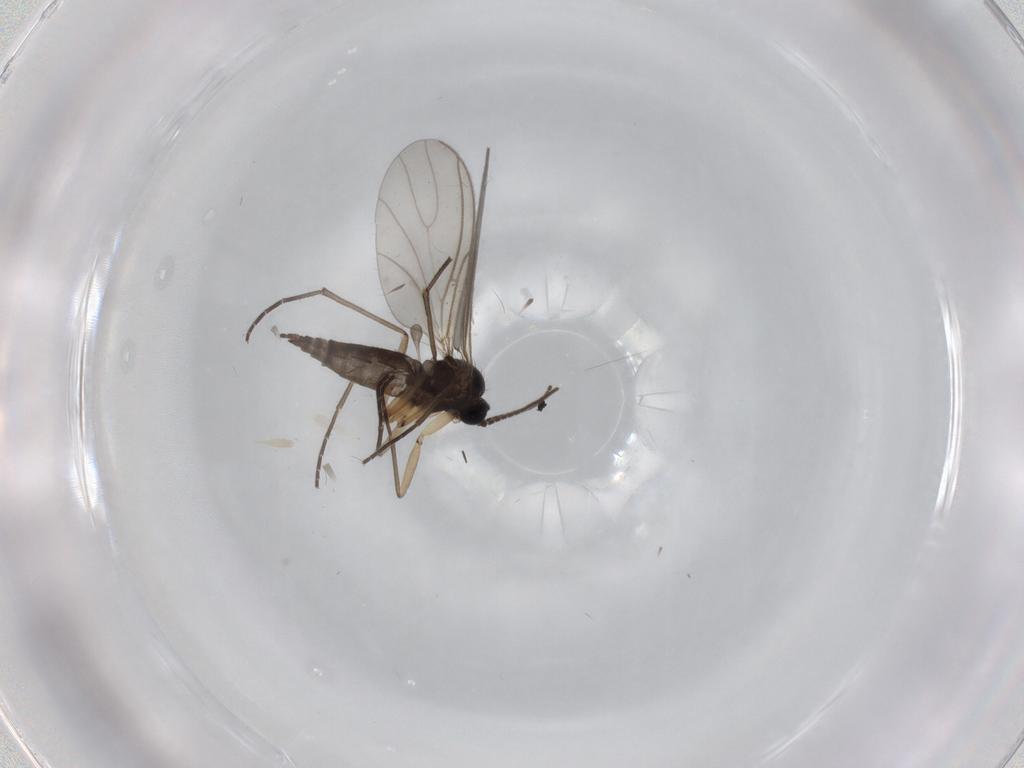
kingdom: Animalia
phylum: Arthropoda
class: Insecta
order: Diptera
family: Sciaridae
